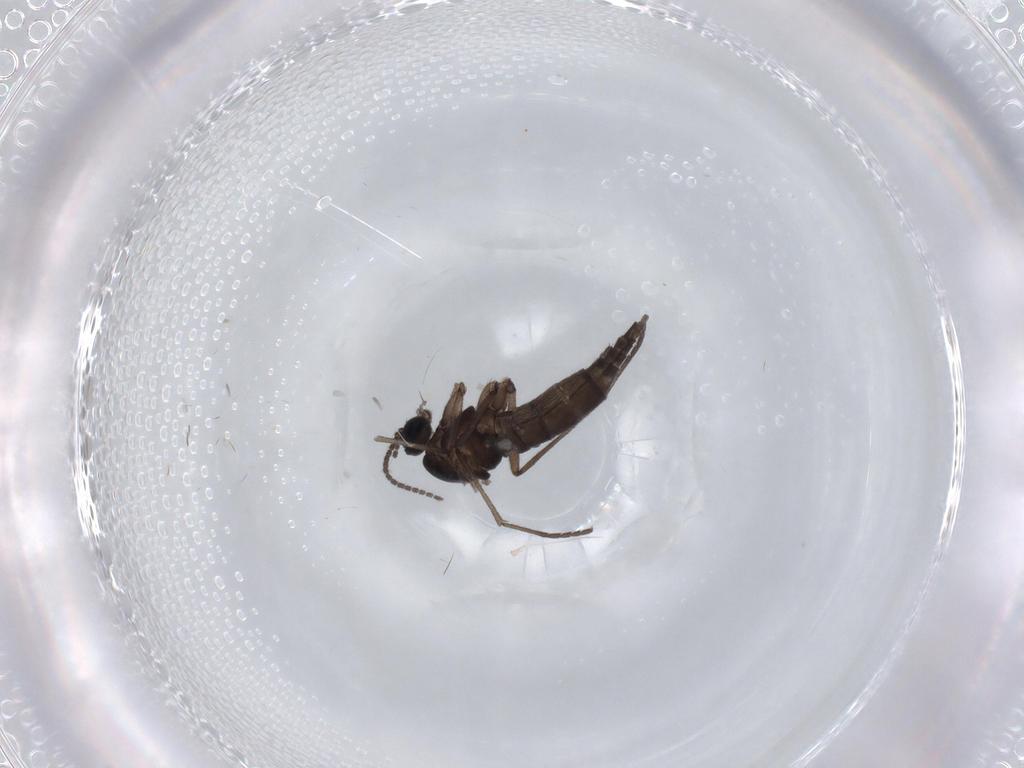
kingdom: Animalia
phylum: Arthropoda
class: Insecta
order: Diptera
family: Sciaridae
